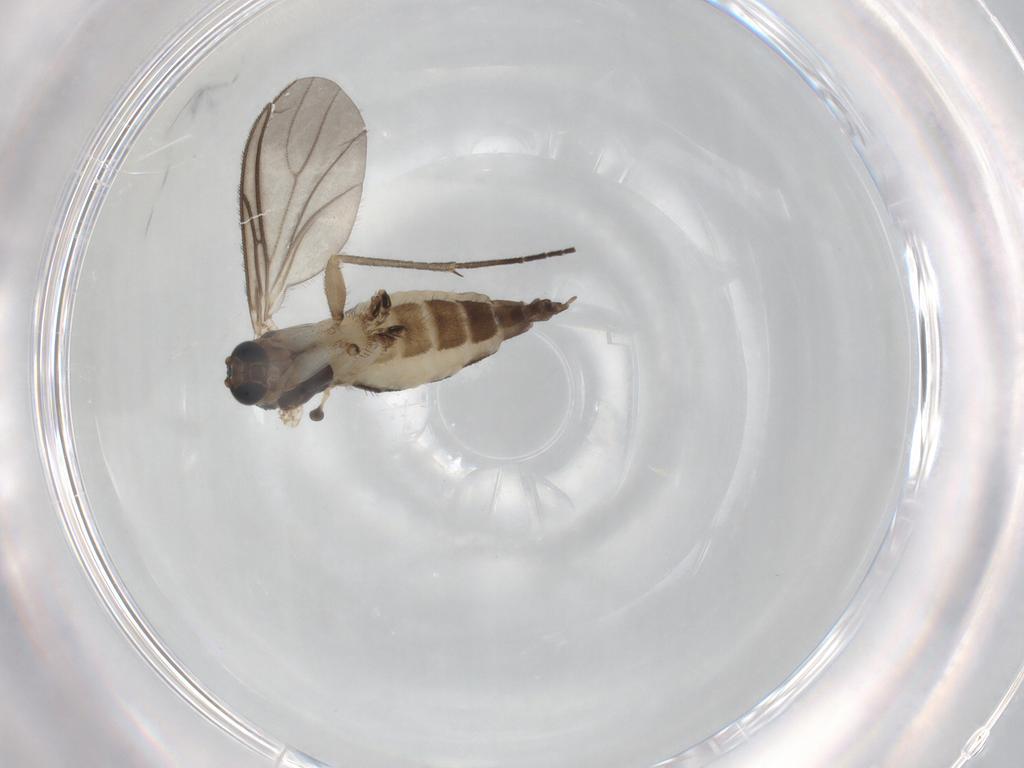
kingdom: Animalia
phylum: Arthropoda
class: Insecta
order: Diptera
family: Sciaridae
